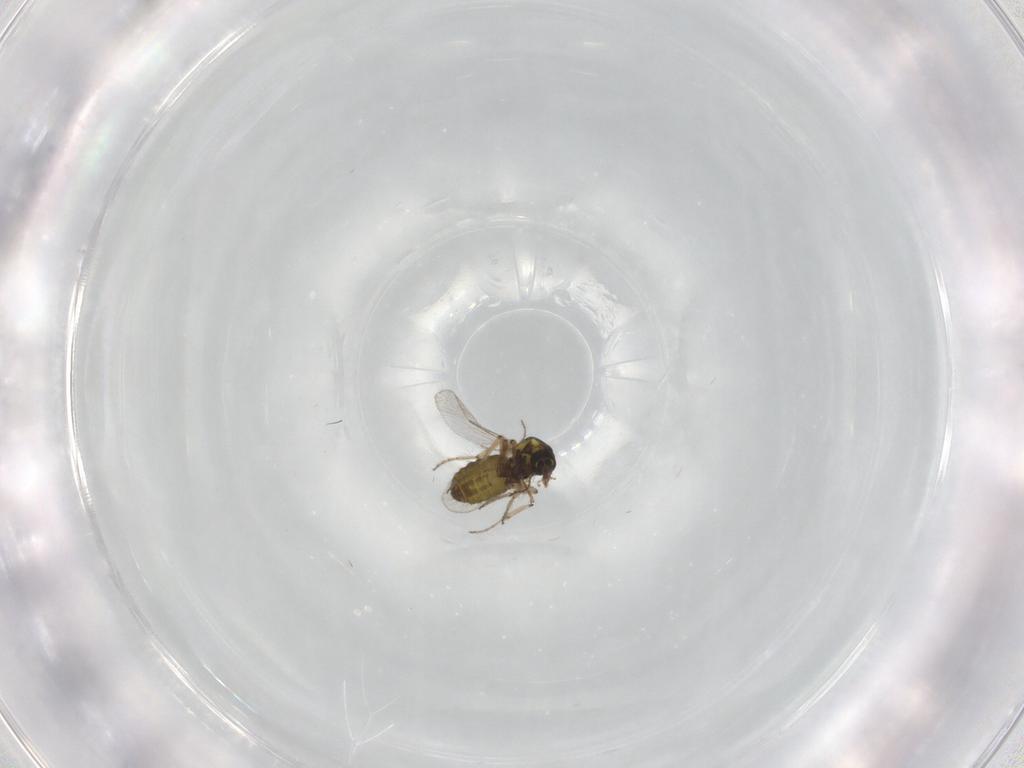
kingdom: Animalia
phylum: Arthropoda
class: Insecta
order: Diptera
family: Ceratopogonidae
